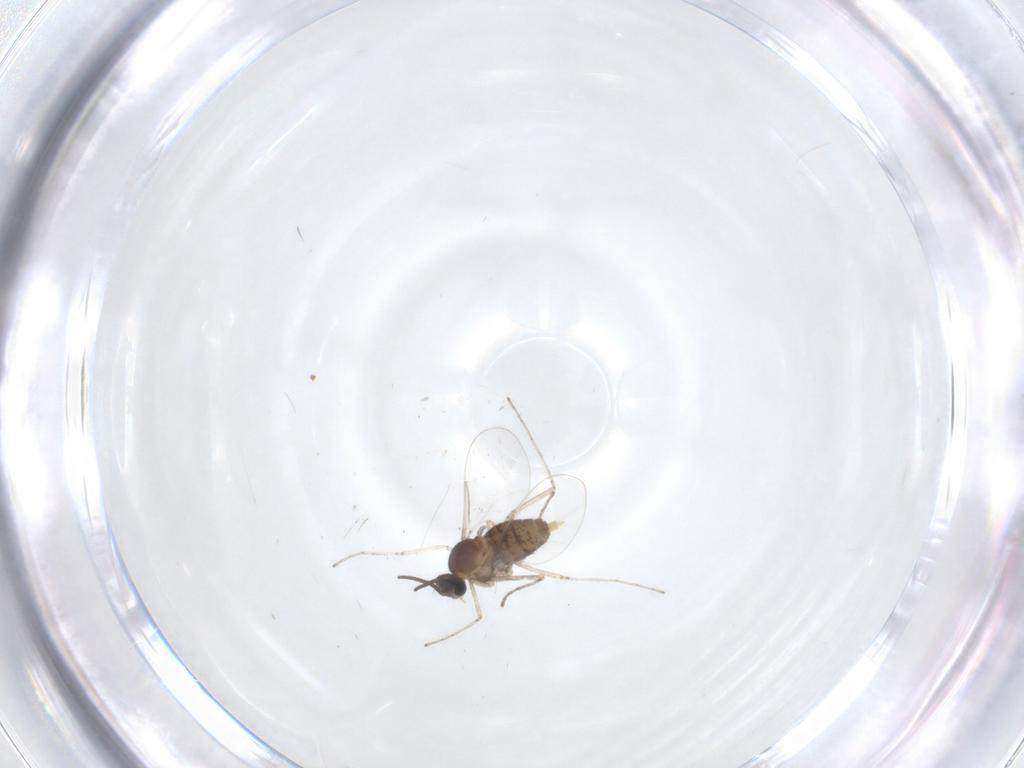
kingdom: Animalia
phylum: Arthropoda
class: Insecta
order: Diptera
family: Cecidomyiidae
